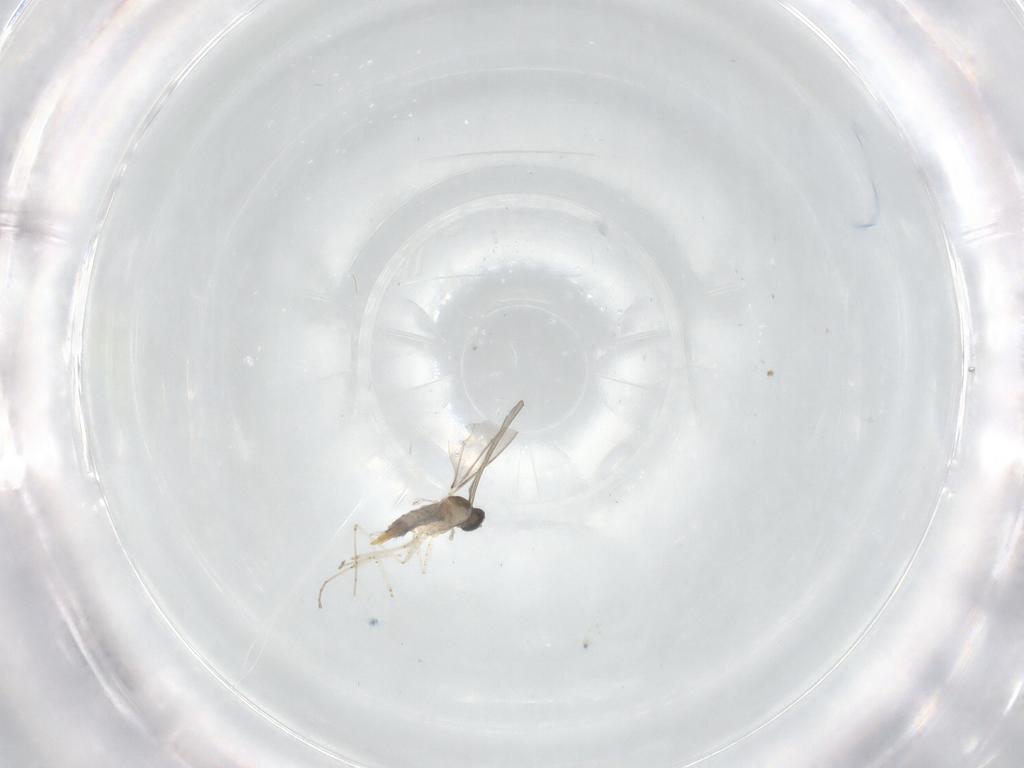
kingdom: Animalia
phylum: Arthropoda
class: Insecta
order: Diptera
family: Cecidomyiidae
